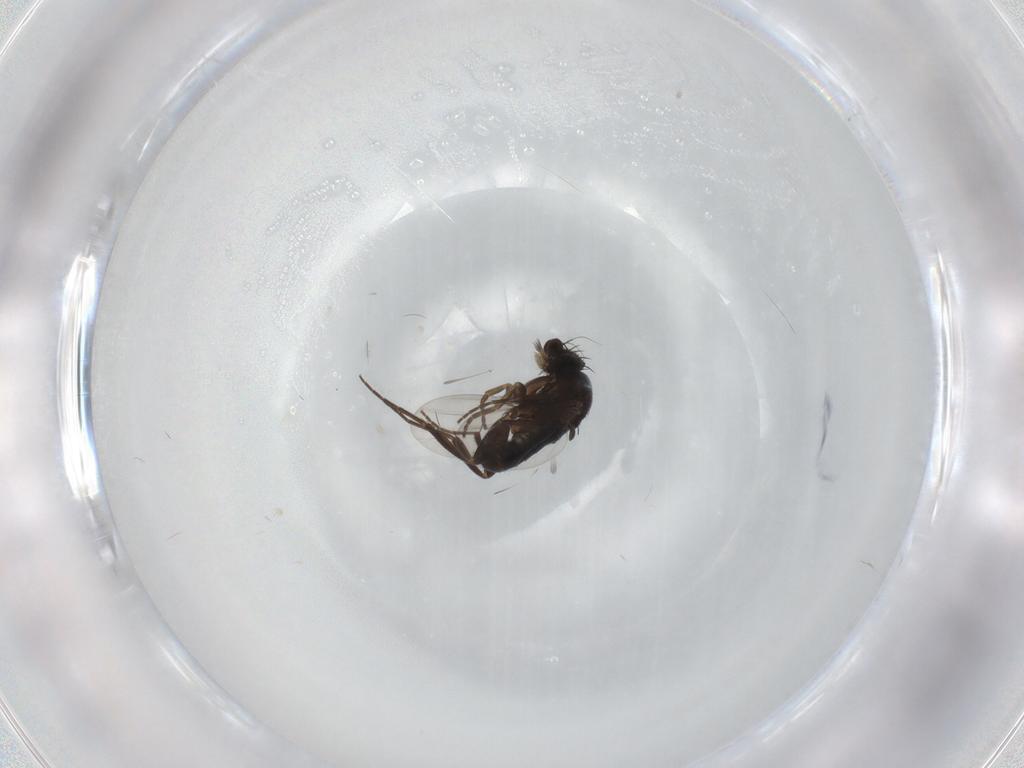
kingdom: Animalia
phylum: Arthropoda
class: Insecta
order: Diptera
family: Phoridae
